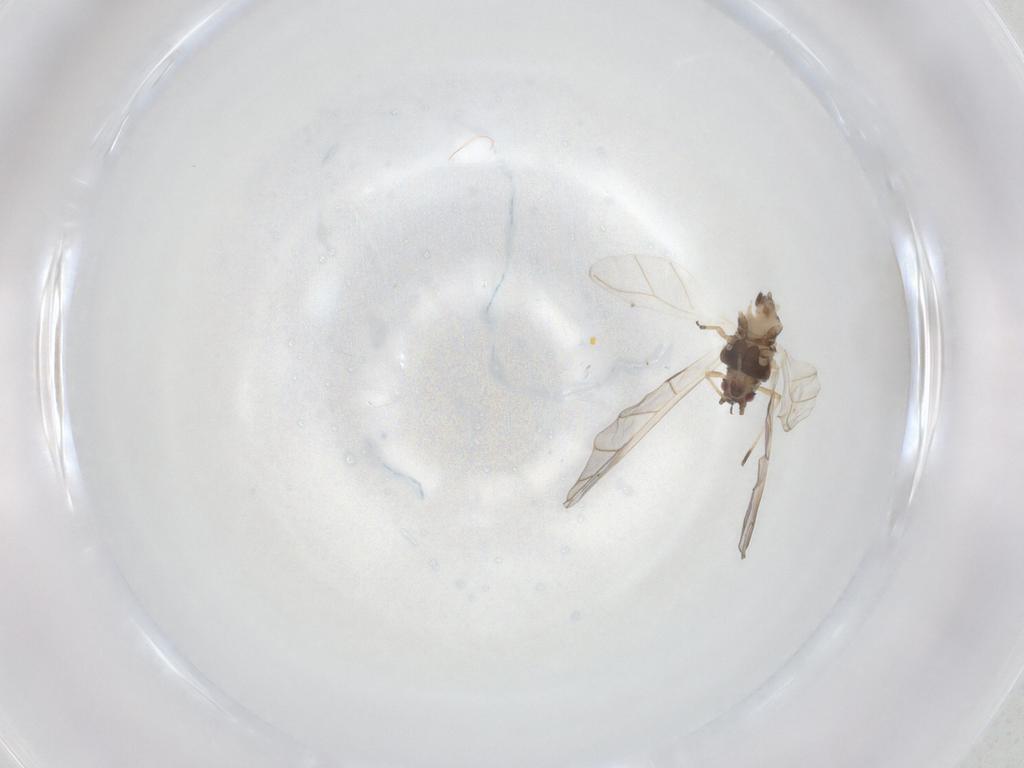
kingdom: Animalia
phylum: Arthropoda
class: Insecta
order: Hemiptera
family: Aphididae
